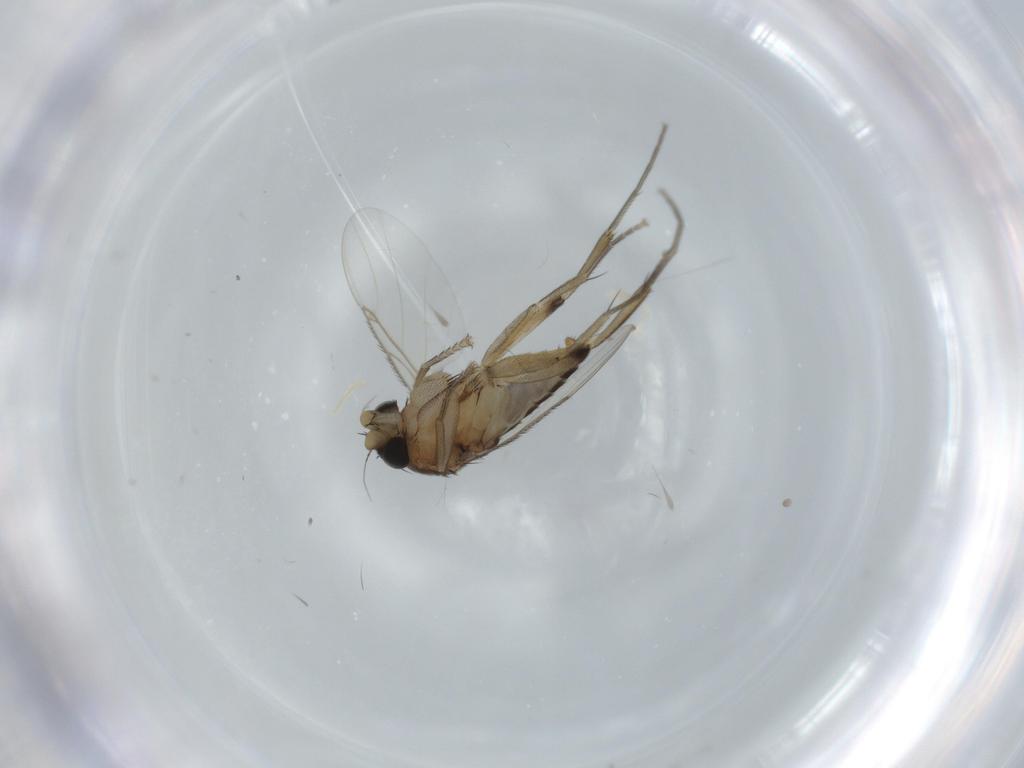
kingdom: Animalia
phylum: Arthropoda
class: Insecta
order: Diptera
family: Phoridae
